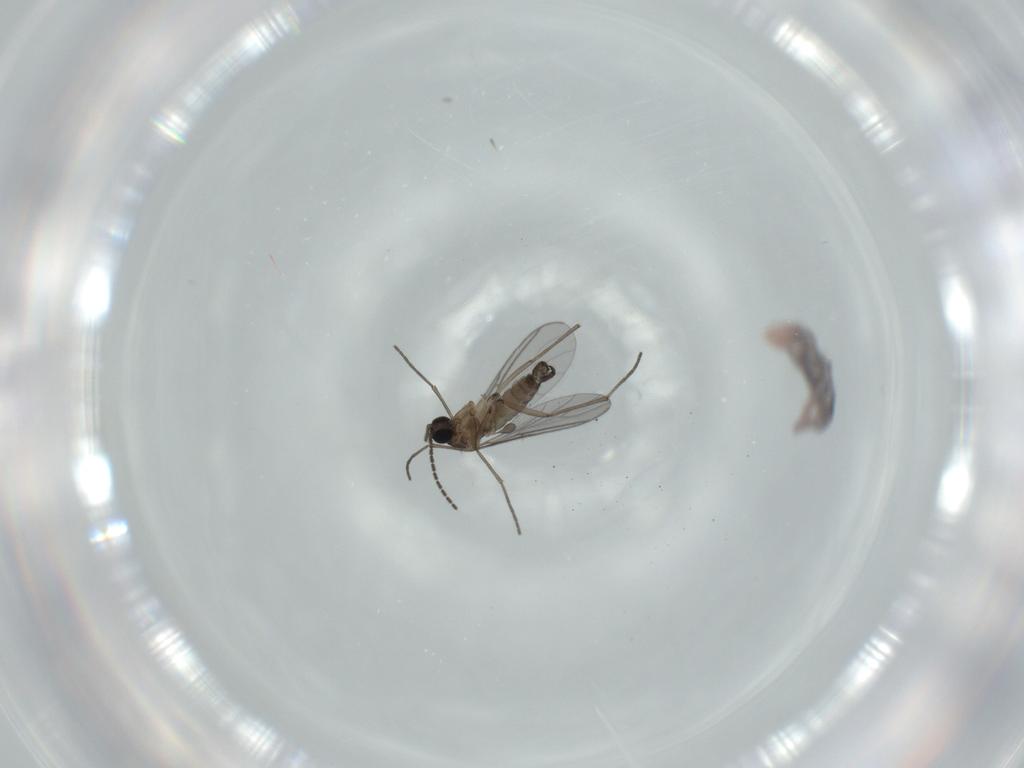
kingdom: Animalia
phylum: Arthropoda
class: Insecta
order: Diptera
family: Sciaridae
